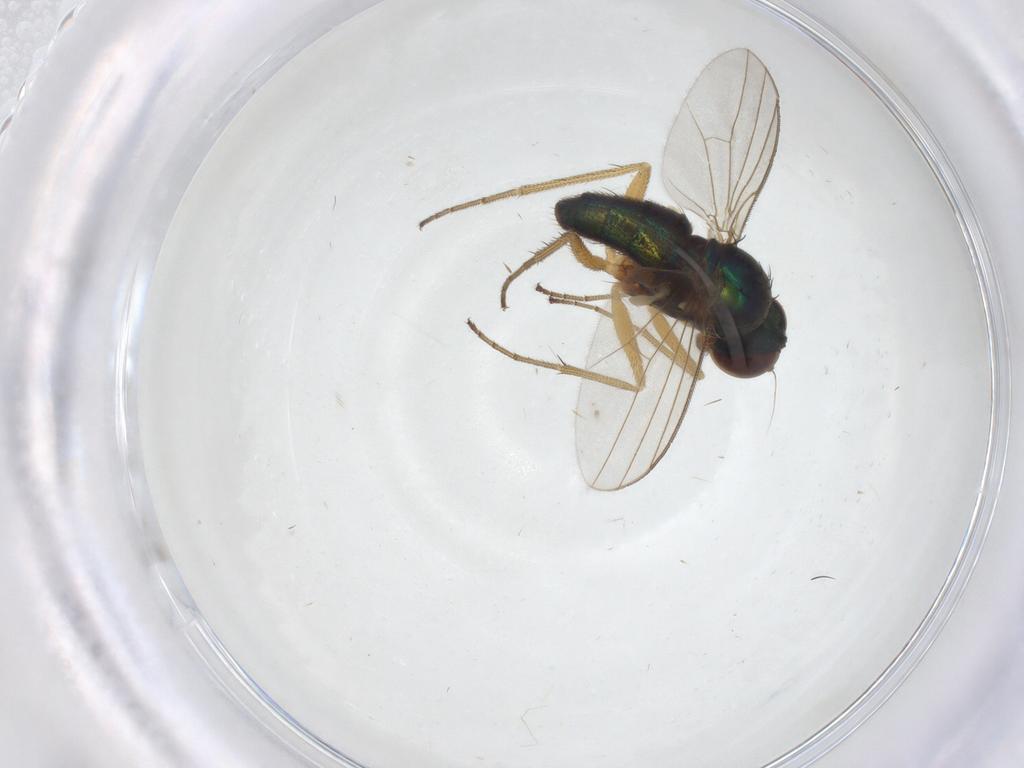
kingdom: Animalia
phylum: Arthropoda
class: Insecta
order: Diptera
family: Dolichopodidae
